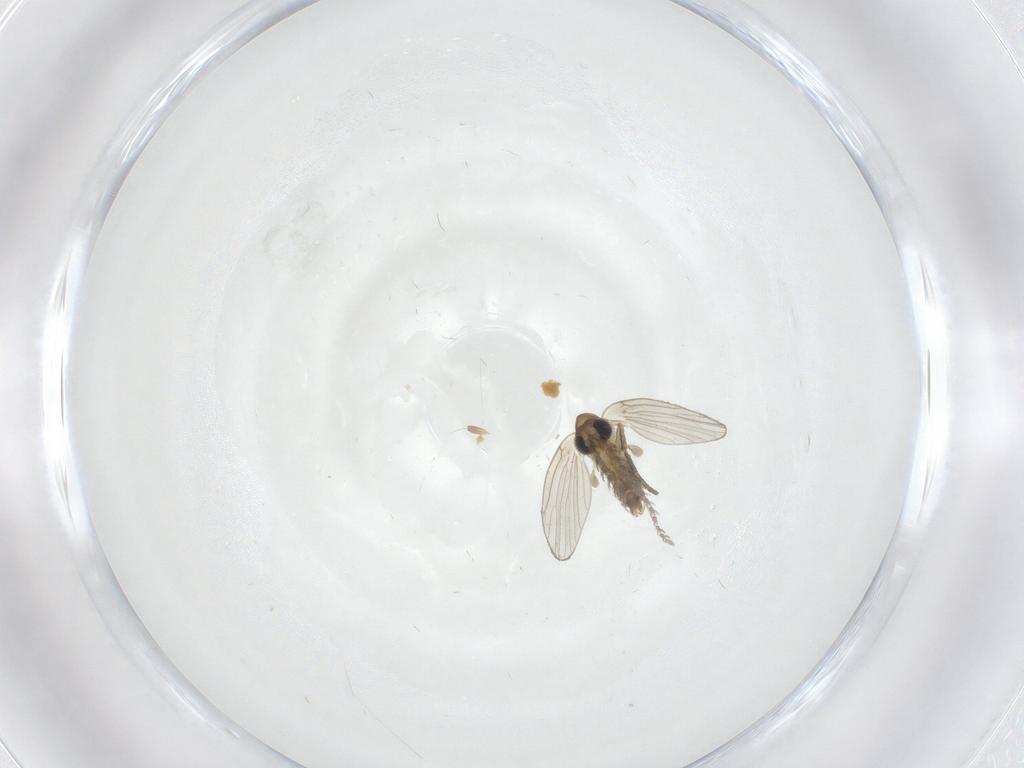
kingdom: Animalia
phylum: Arthropoda
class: Insecta
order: Diptera
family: Psychodidae
